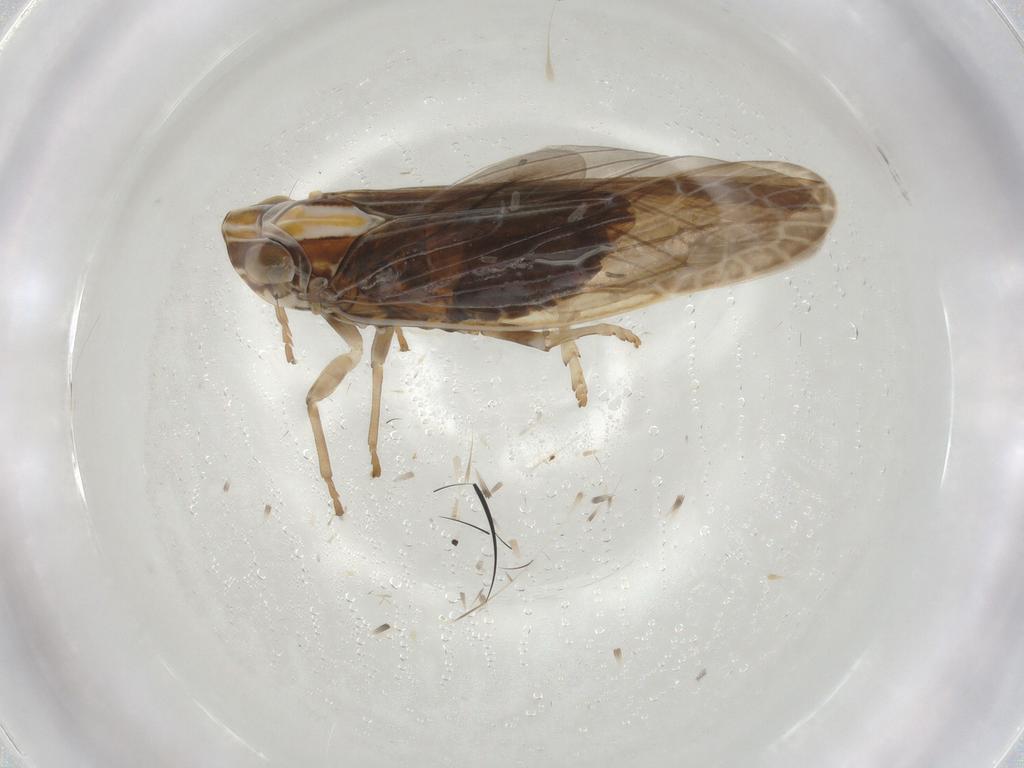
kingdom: Animalia
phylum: Arthropoda
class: Insecta
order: Hemiptera
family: Achilidae
